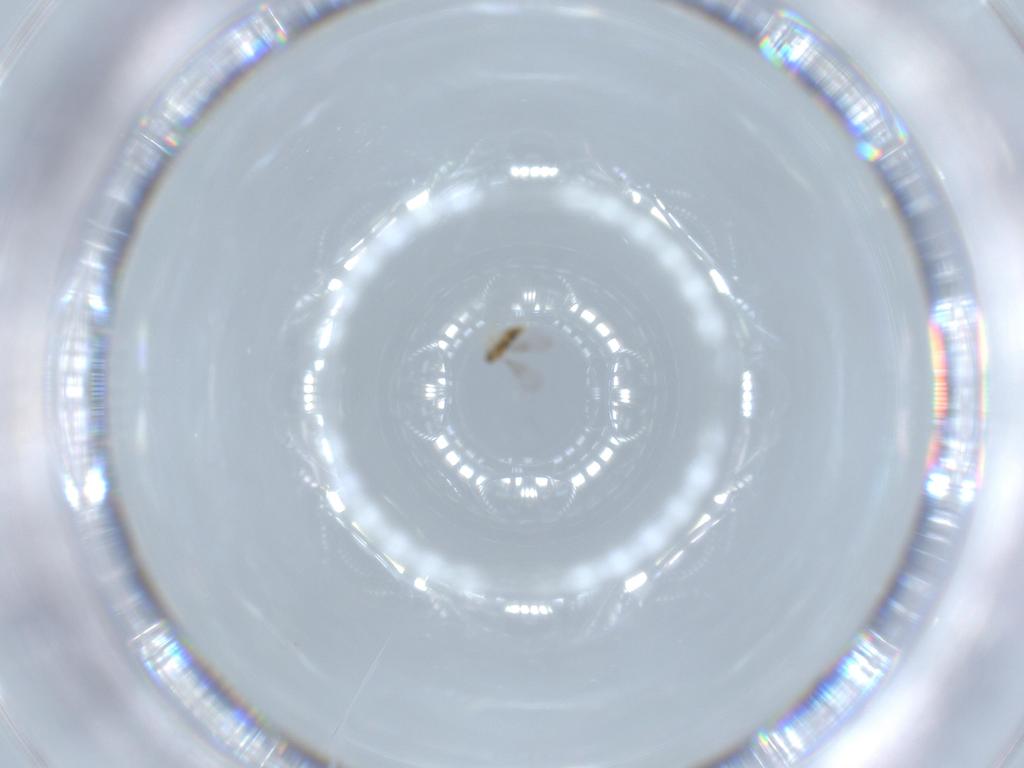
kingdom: Animalia
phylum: Arthropoda
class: Insecta
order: Hymenoptera
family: Aphelinidae
